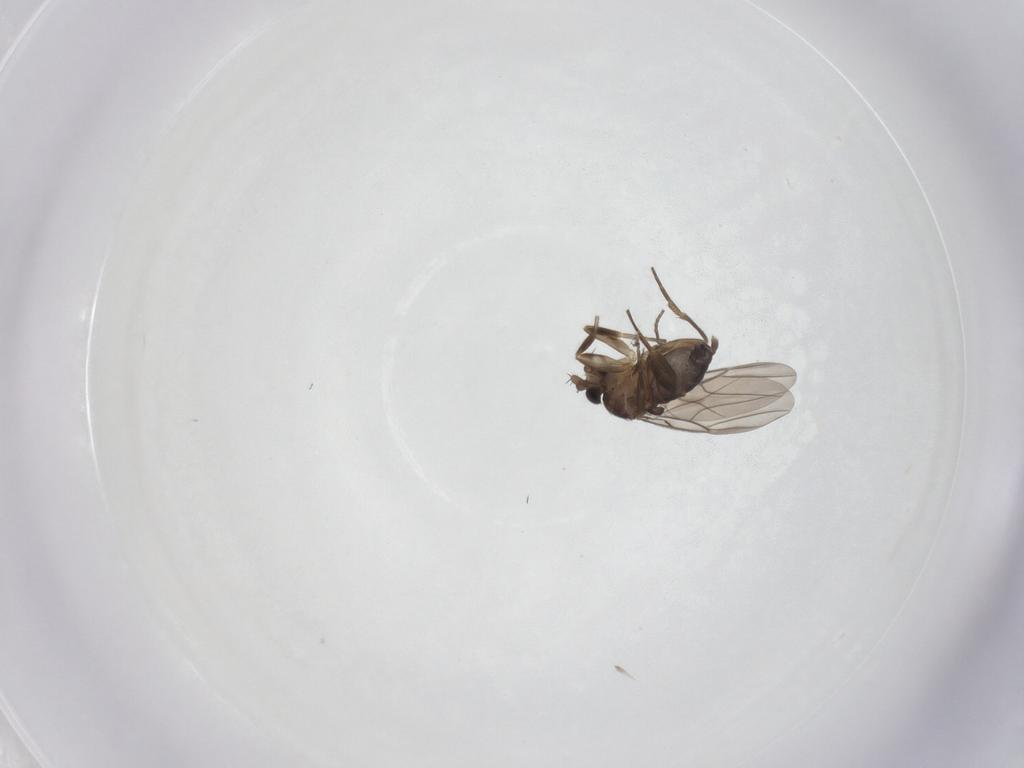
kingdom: Animalia
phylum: Arthropoda
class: Insecta
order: Diptera
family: Phoridae
